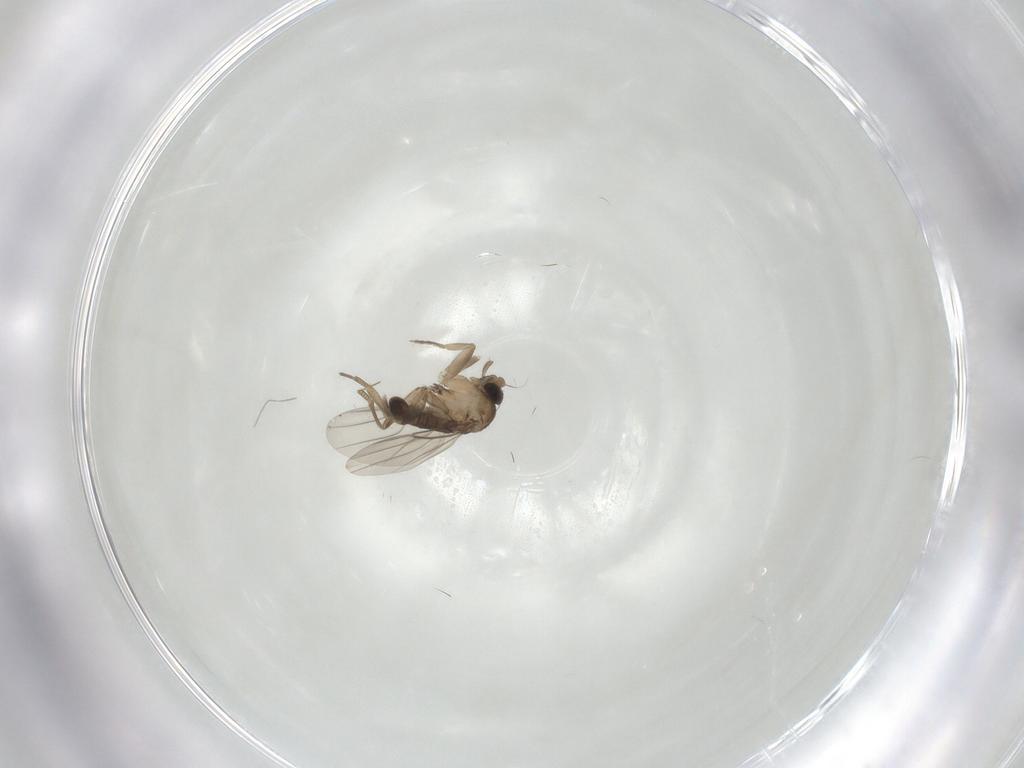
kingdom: Animalia
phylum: Arthropoda
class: Insecta
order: Diptera
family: Phoridae
